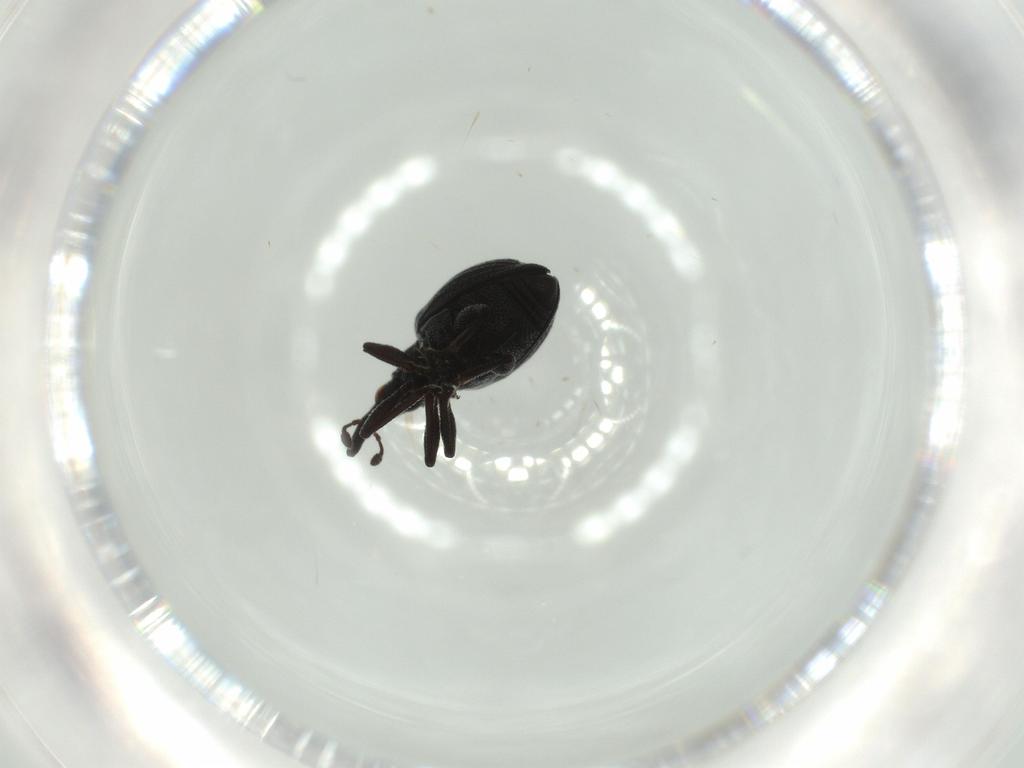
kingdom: Animalia
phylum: Arthropoda
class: Insecta
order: Coleoptera
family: Brentidae
